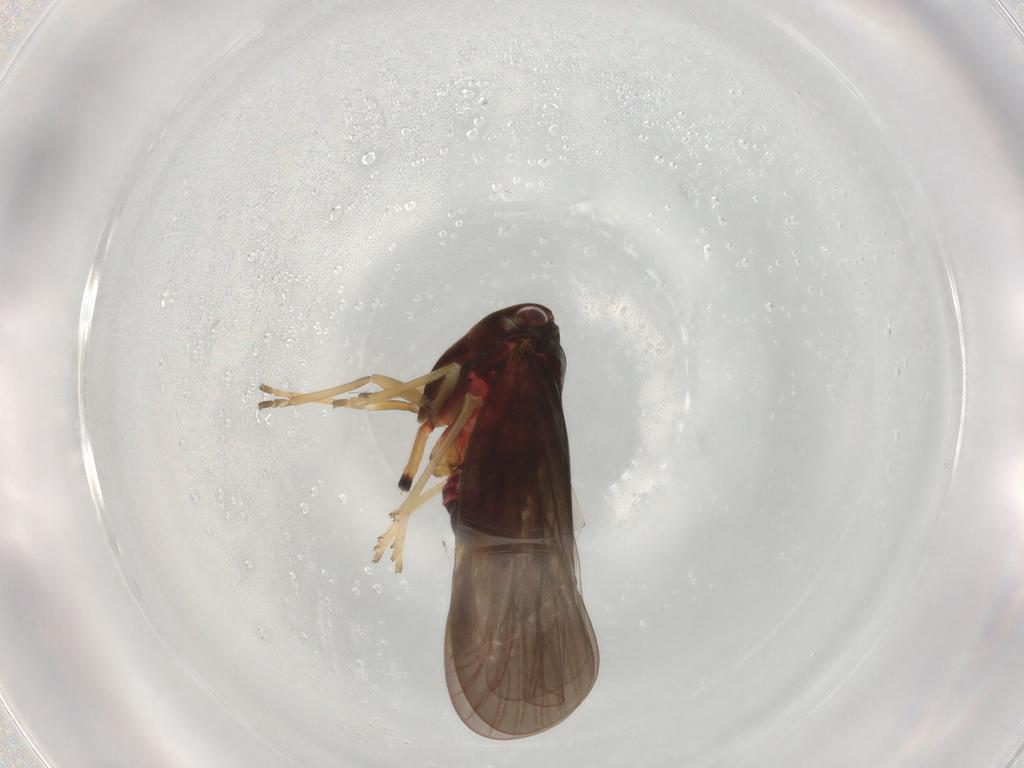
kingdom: Animalia
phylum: Arthropoda
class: Insecta
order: Hemiptera
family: Derbidae
